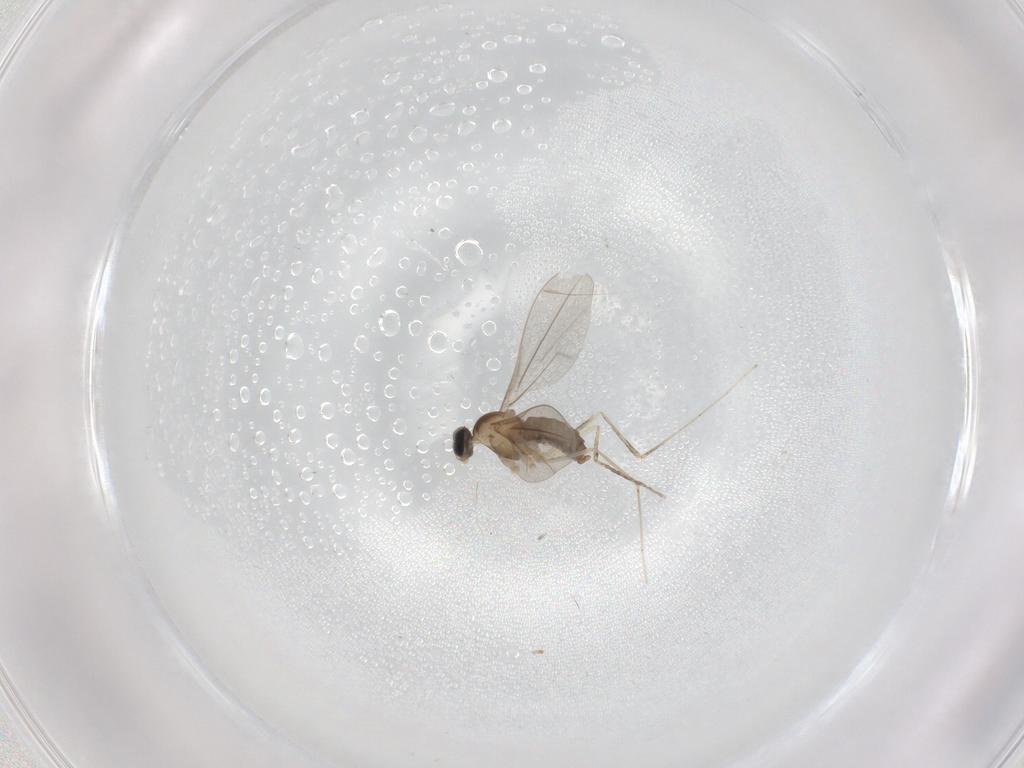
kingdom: Animalia
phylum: Arthropoda
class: Insecta
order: Diptera
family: Cecidomyiidae
